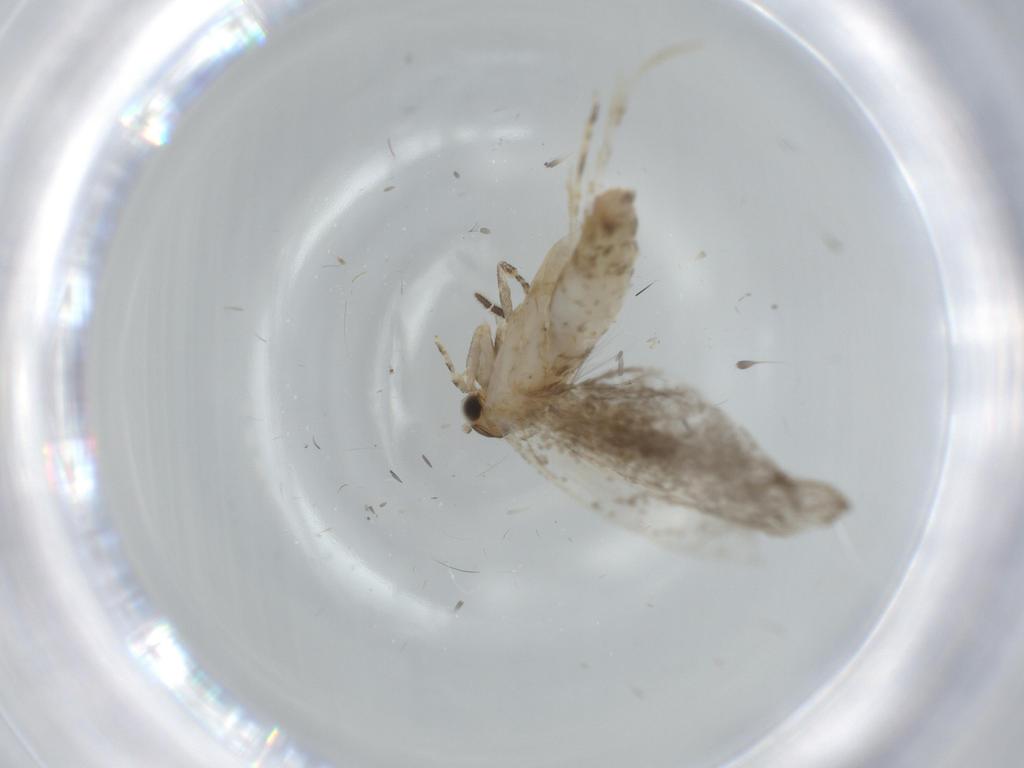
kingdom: Animalia
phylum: Arthropoda
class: Insecta
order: Lepidoptera
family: Tineidae
